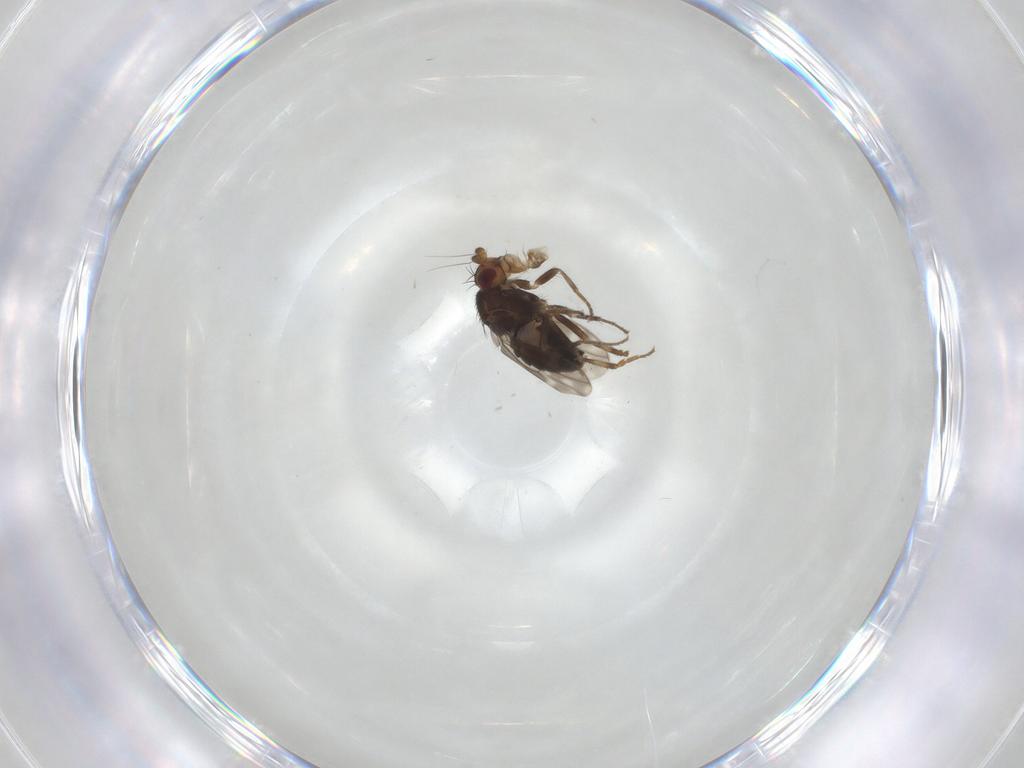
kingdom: Animalia
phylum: Arthropoda
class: Insecta
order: Diptera
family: Sphaeroceridae
